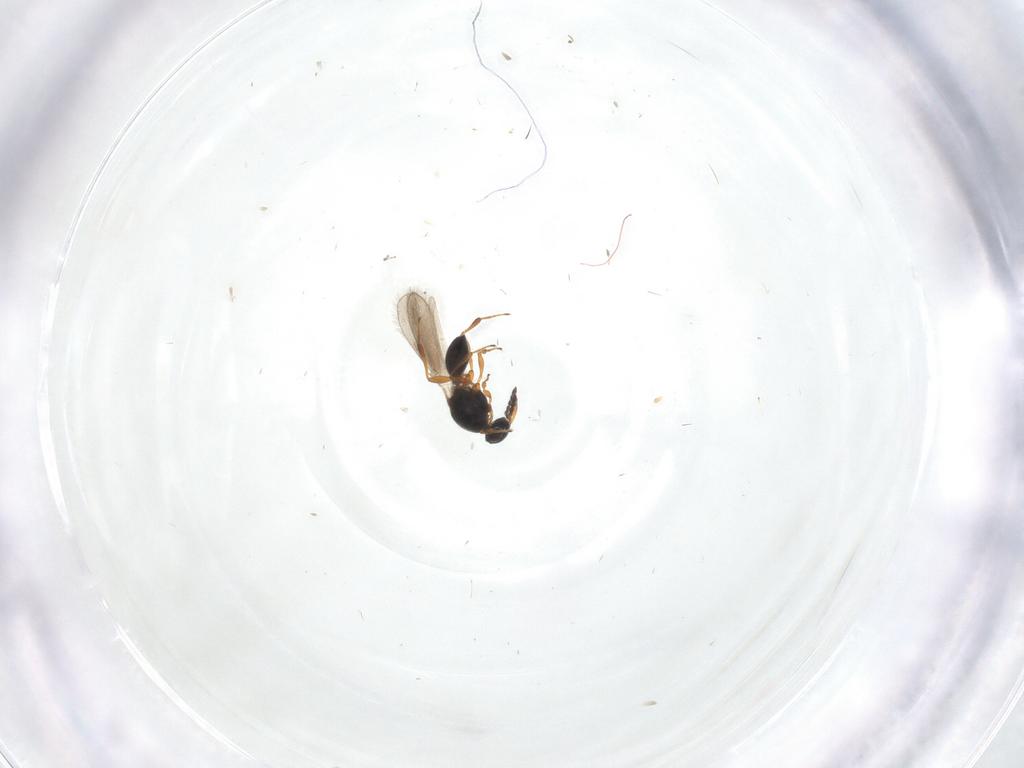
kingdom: Animalia
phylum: Arthropoda
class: Insecta
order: Hymenoptera
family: Platygastridae
